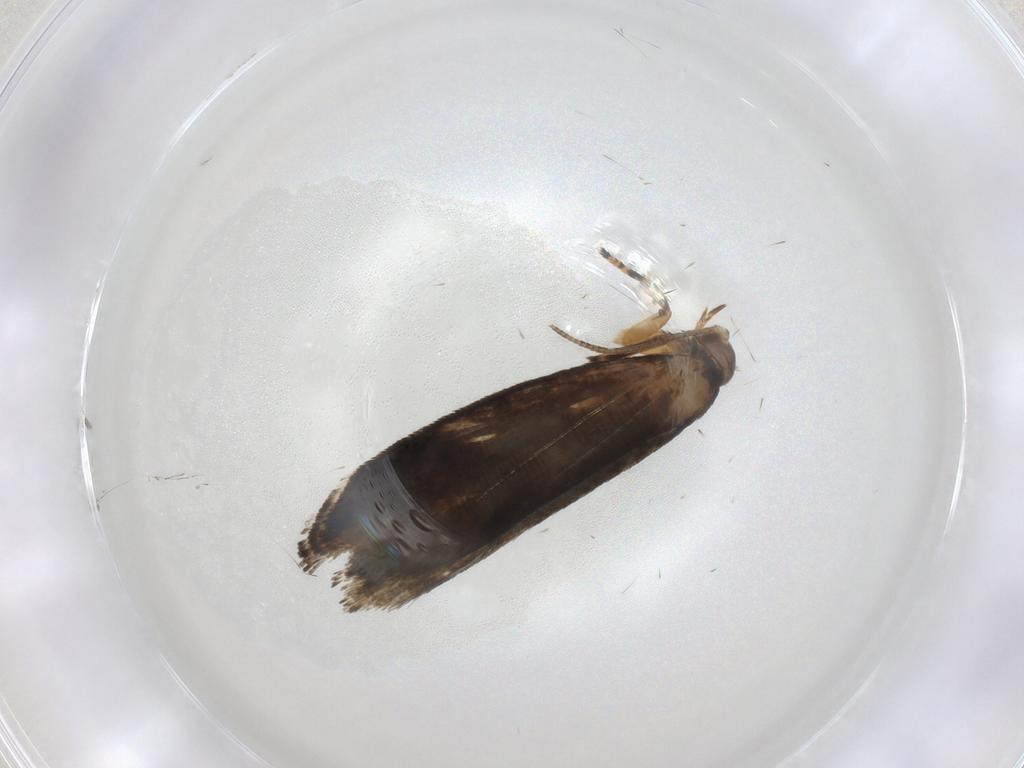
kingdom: Animalia
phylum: Arthropoda
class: Insecta
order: Lepidoptera
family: Crambidae
